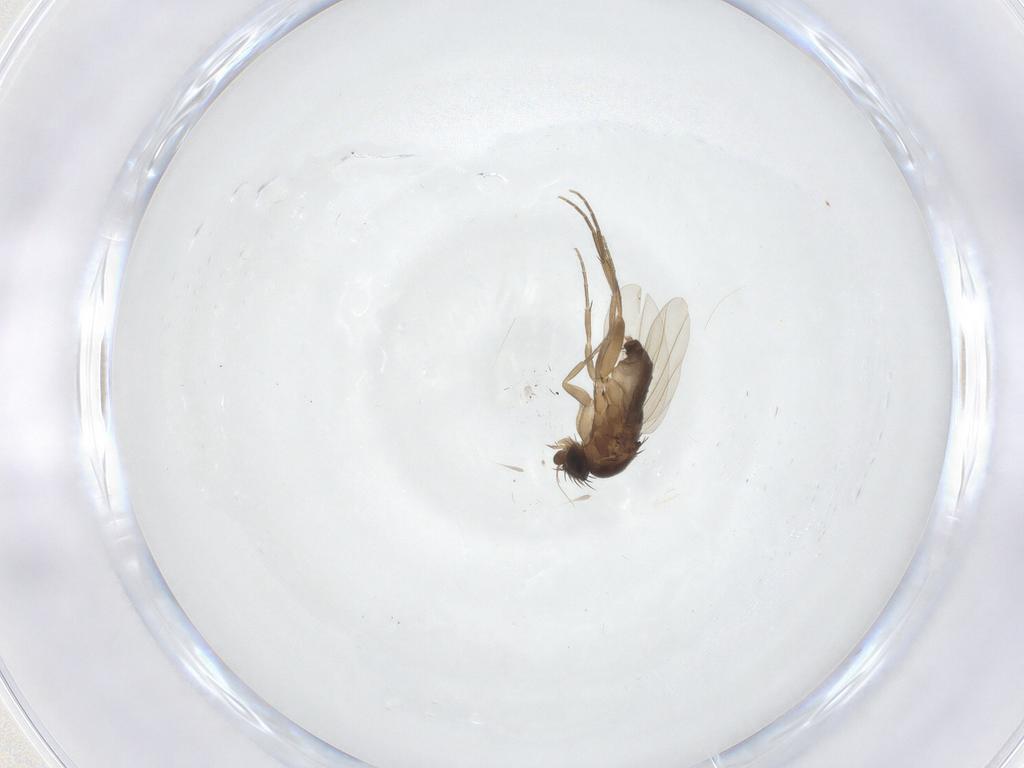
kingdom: Animalia
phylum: Arthropoda
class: Insecta
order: Diptera
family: Phoridae
